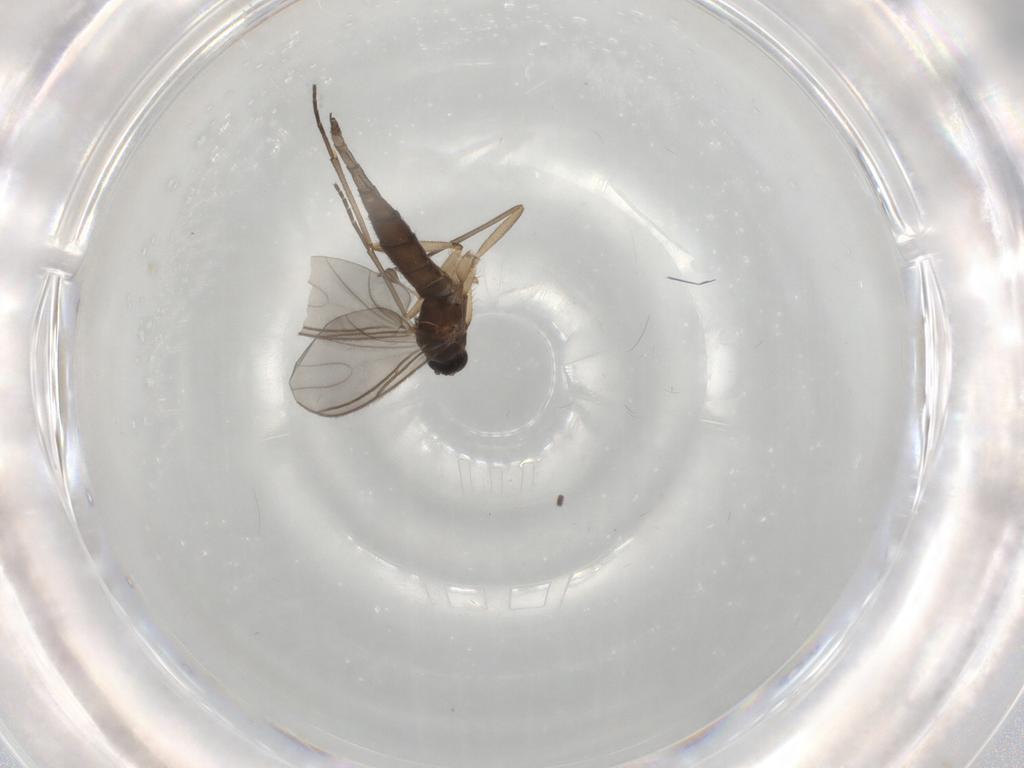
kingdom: Animalia
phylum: Arthropoda
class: Insecta
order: Diptera
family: Sciaridae
